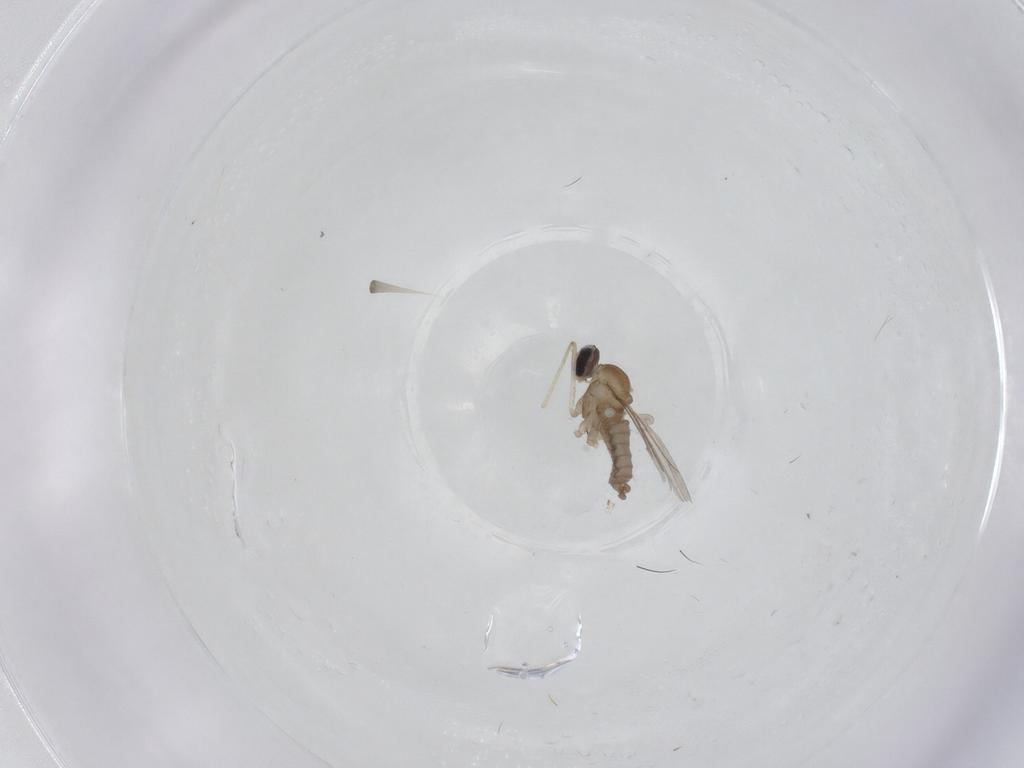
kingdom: Animalia
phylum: Arthropoda
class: Insecta
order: Diptera
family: Cecidomyiidae
